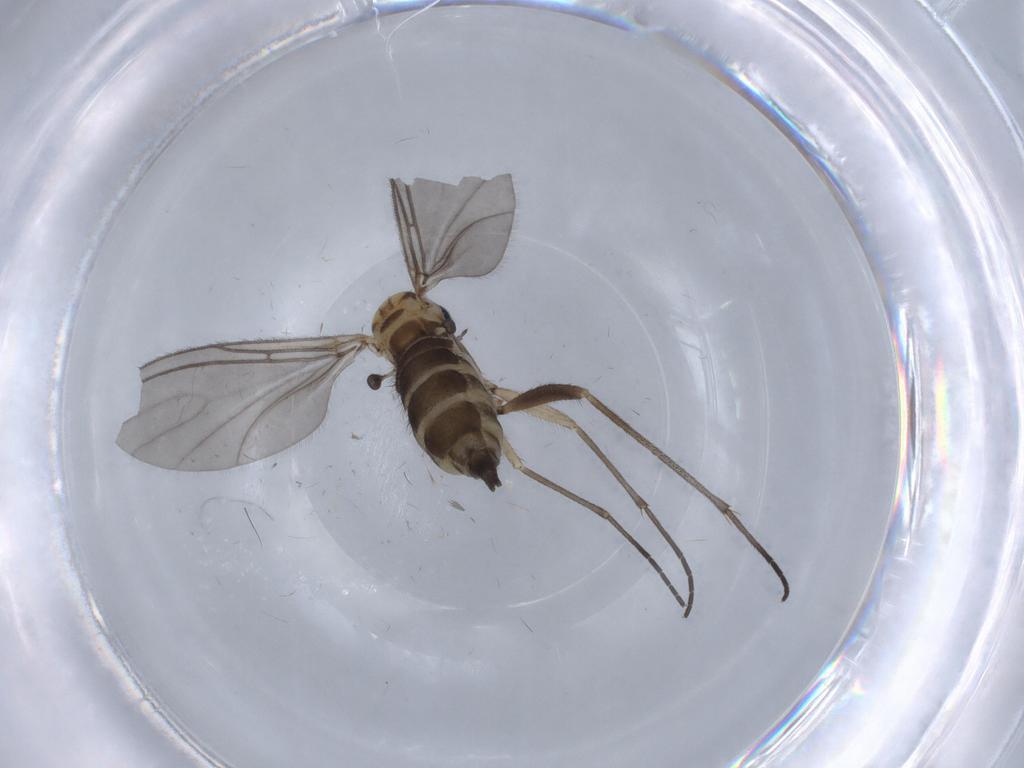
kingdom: Animalia
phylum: Arthropoda
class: Insecta
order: Diptera
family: Sciaridae
